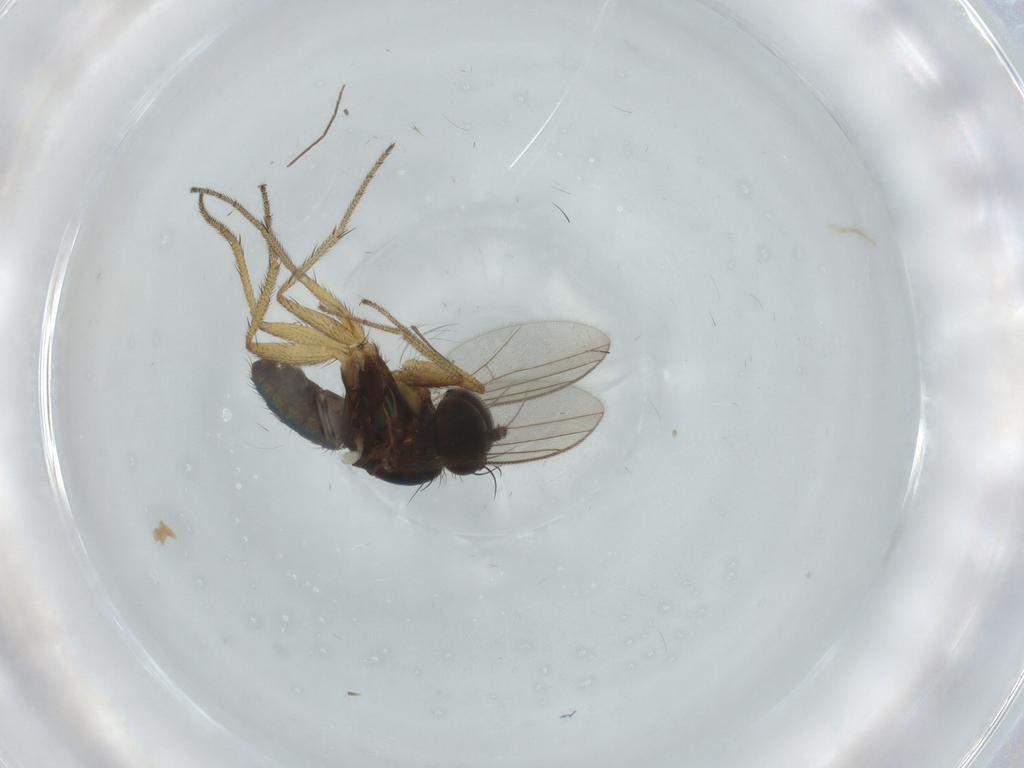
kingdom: Animalia
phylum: Arthropoda
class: Insecta
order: Diptera
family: Dolichopodidae
